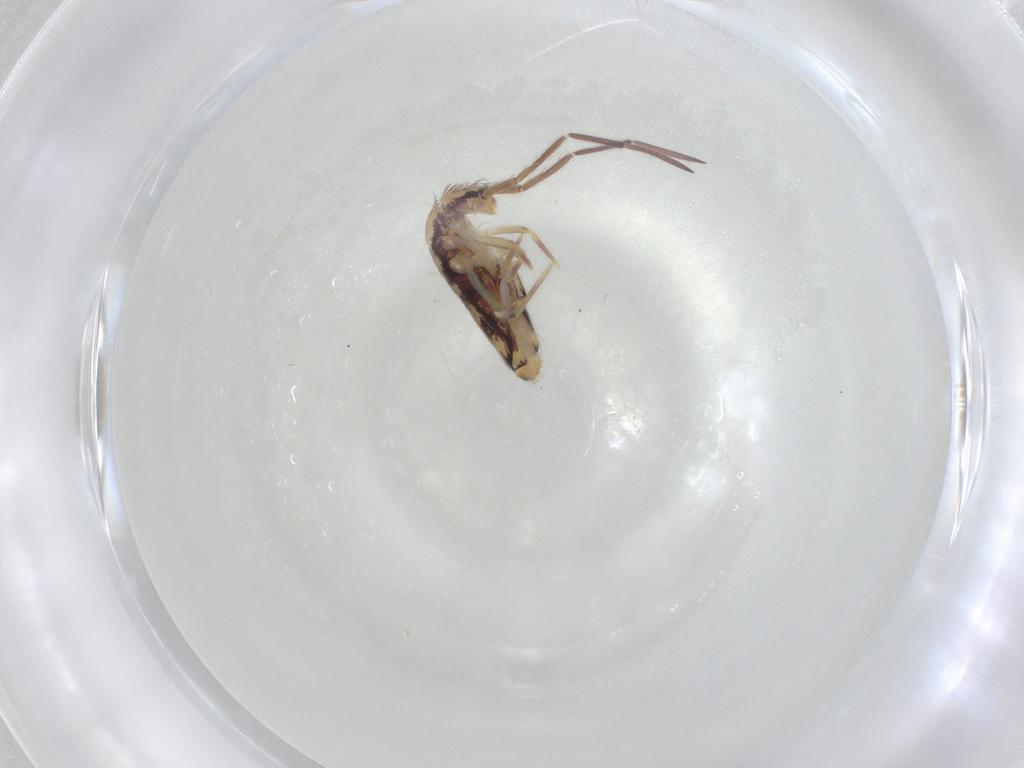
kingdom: Animalia
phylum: Arthropoda
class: Collembola
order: Entomobryomorpha
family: Entomobryidae
